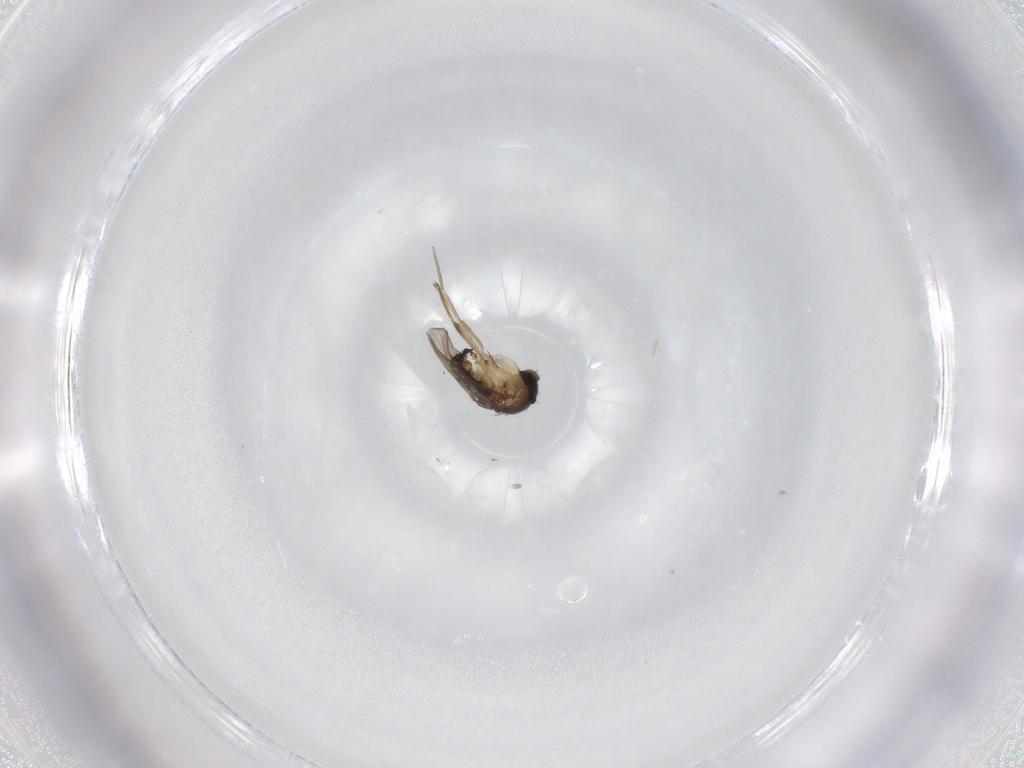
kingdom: Animalia
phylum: Arthropoda
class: Insecta
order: Diptera
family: Phoridae
